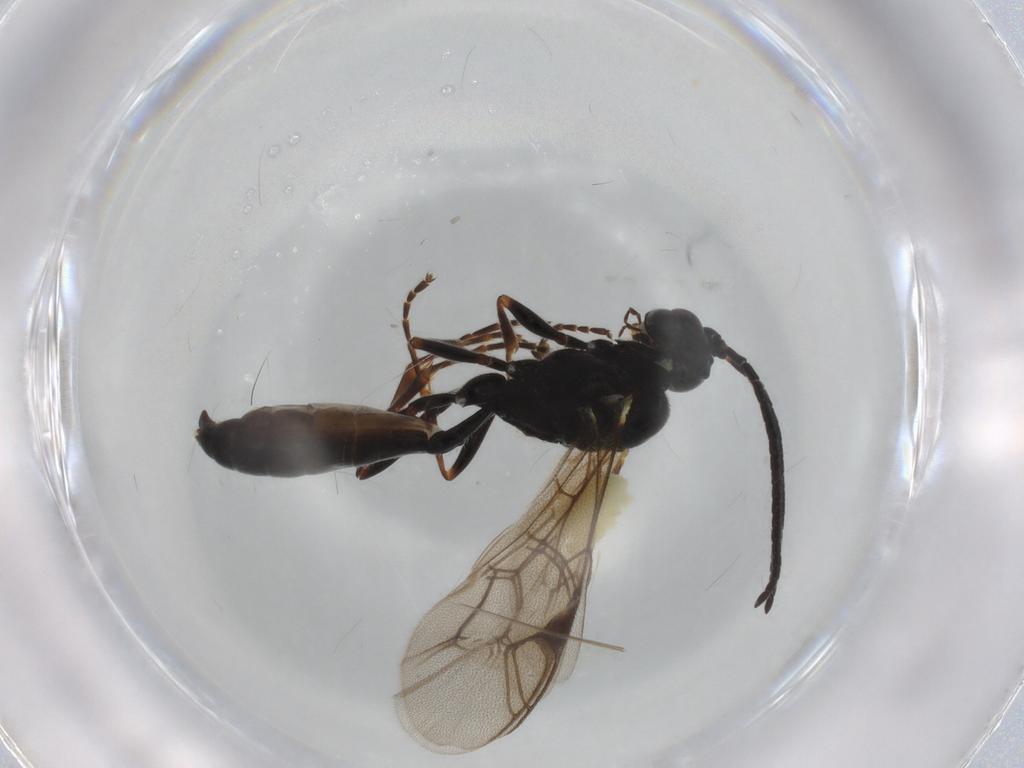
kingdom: Animalia
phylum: Arthropoda
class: Insecta
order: Hymenoptera
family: Ichneumonidae
